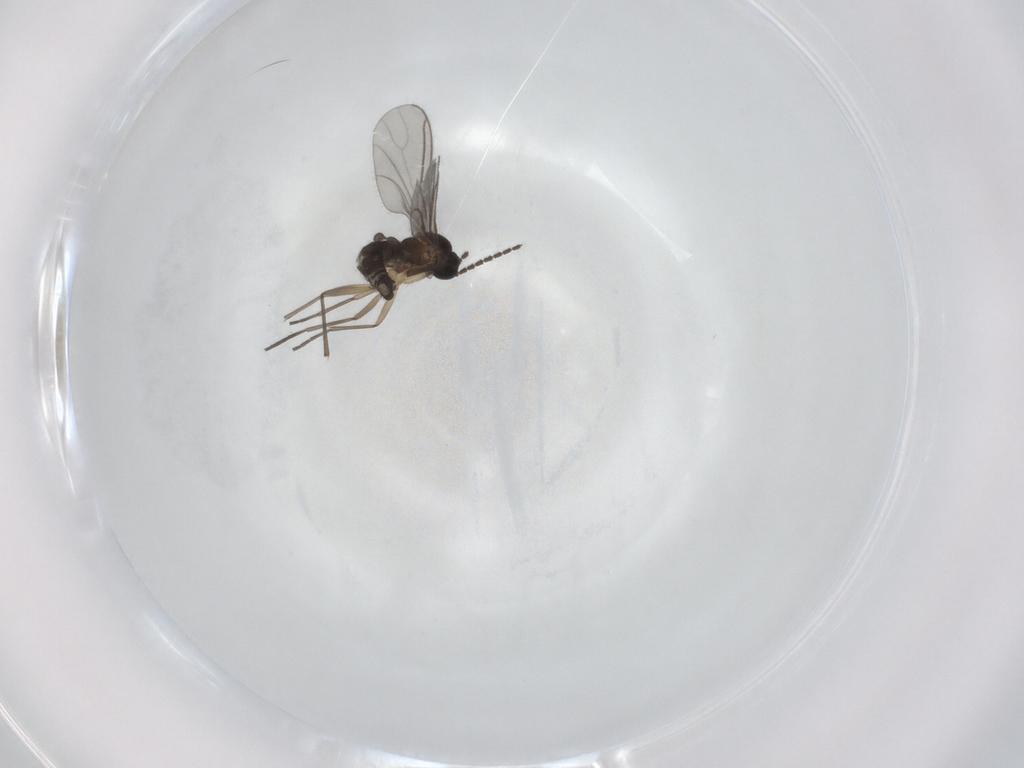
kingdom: Animalia
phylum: Arthropoda
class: Insecta
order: Diptera
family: Sciaridae
